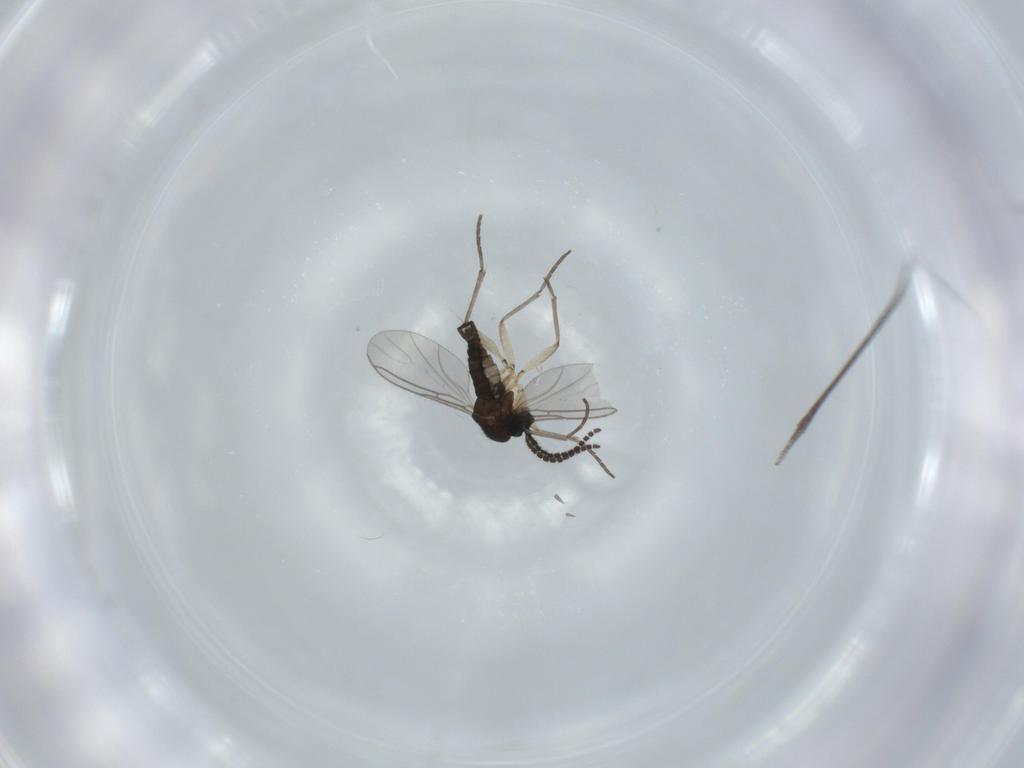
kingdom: Animalia
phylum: Arthropoda
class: Insecta
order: Diptera
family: Sciaridae
